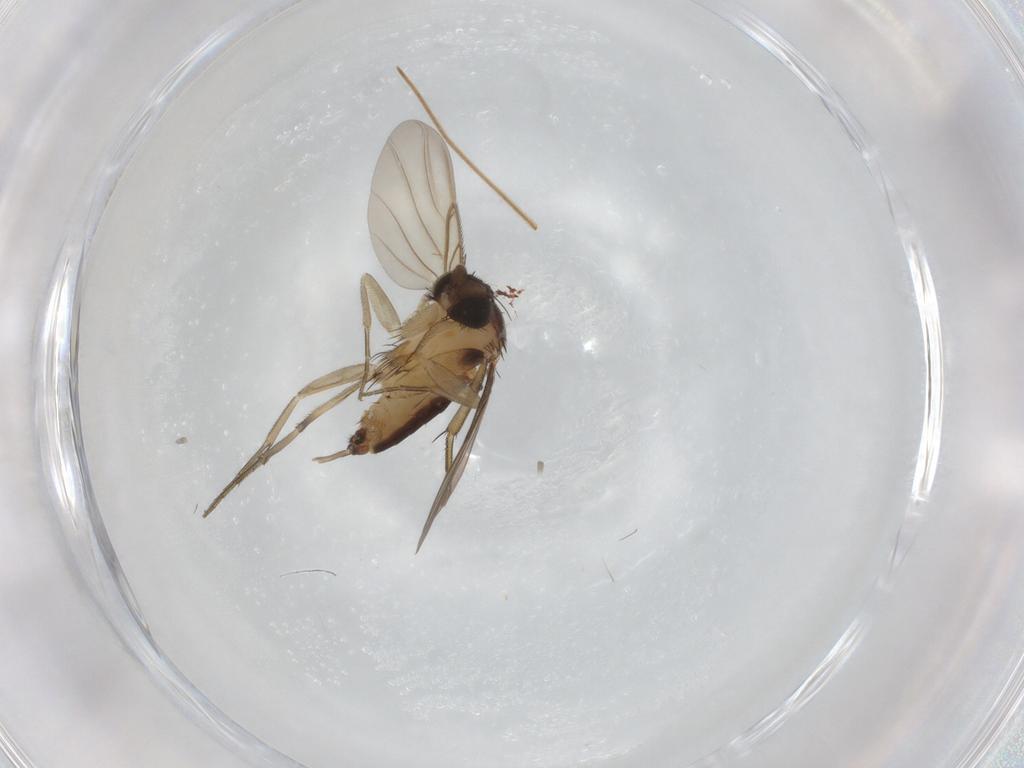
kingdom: Animalia
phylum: Arthropoda
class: Insecta
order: Diptera
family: Phoridae
